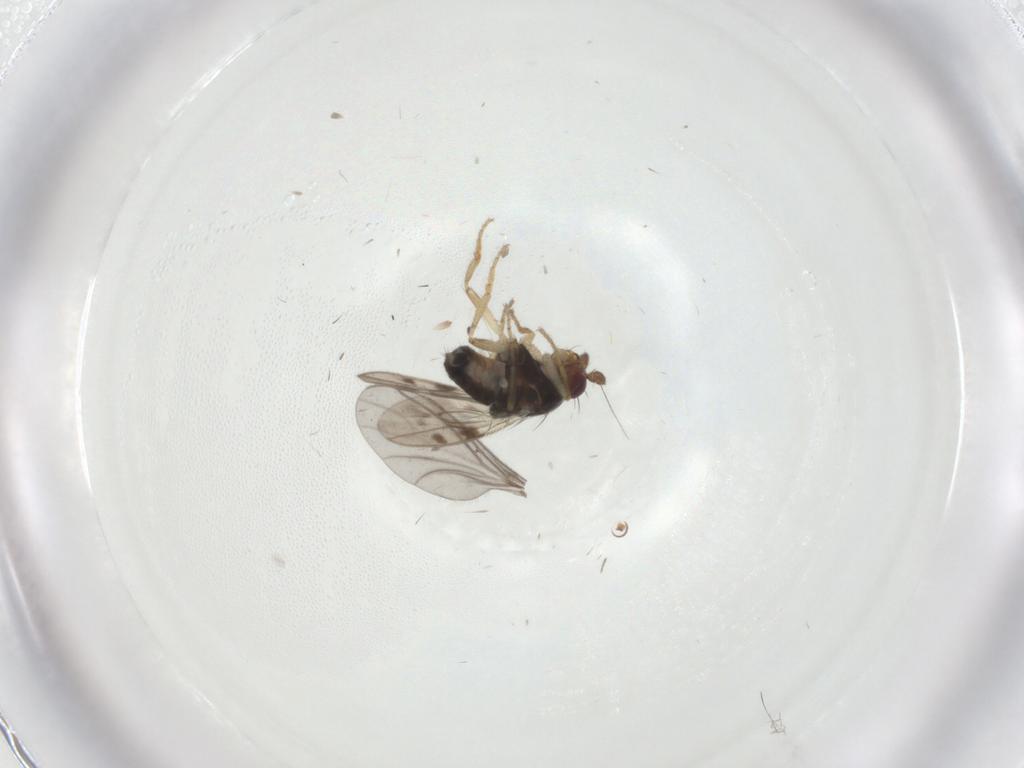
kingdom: Animalia
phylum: Arthropoda
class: Insecta
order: Diptera
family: Sphaeroceridae
